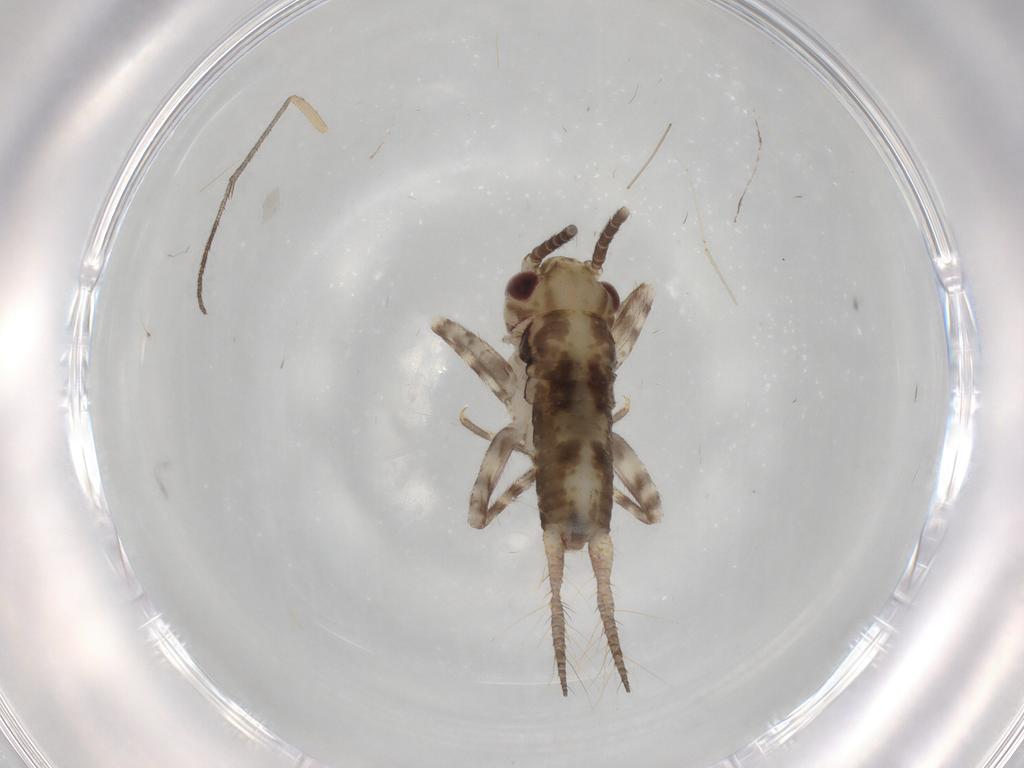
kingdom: Animalia
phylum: Arthropoda
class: Insecta
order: Orthoptera
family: Gryllidae
